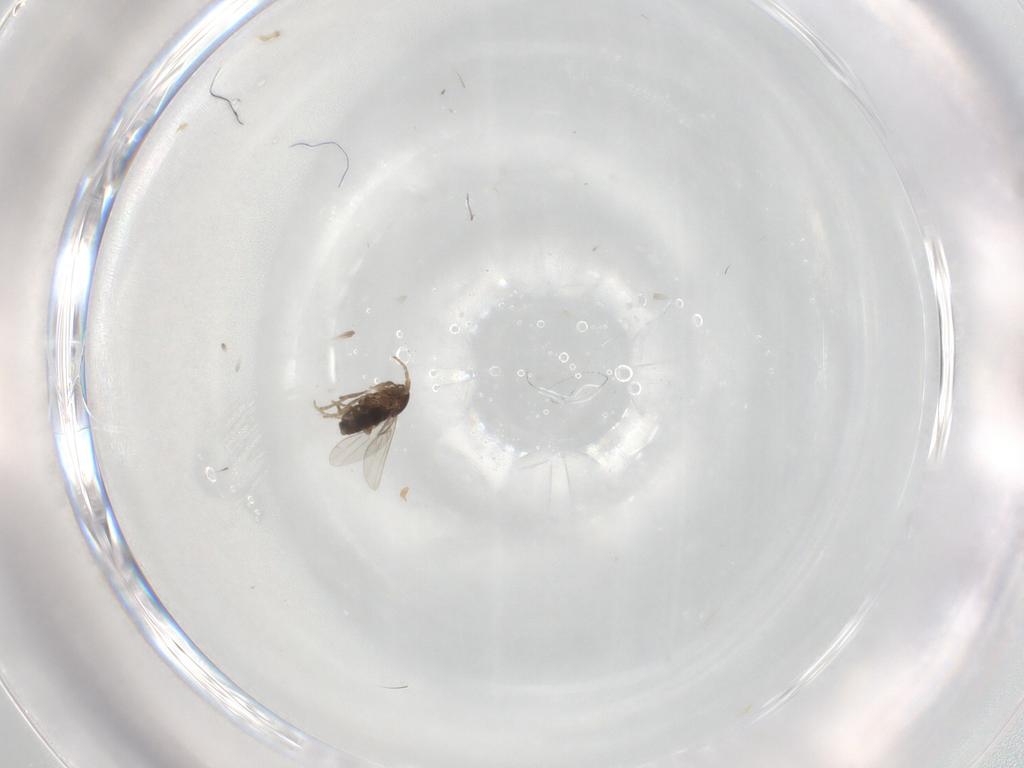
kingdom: Animalia
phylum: Arthropoda
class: Insecta
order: Diptera
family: Phoridae
